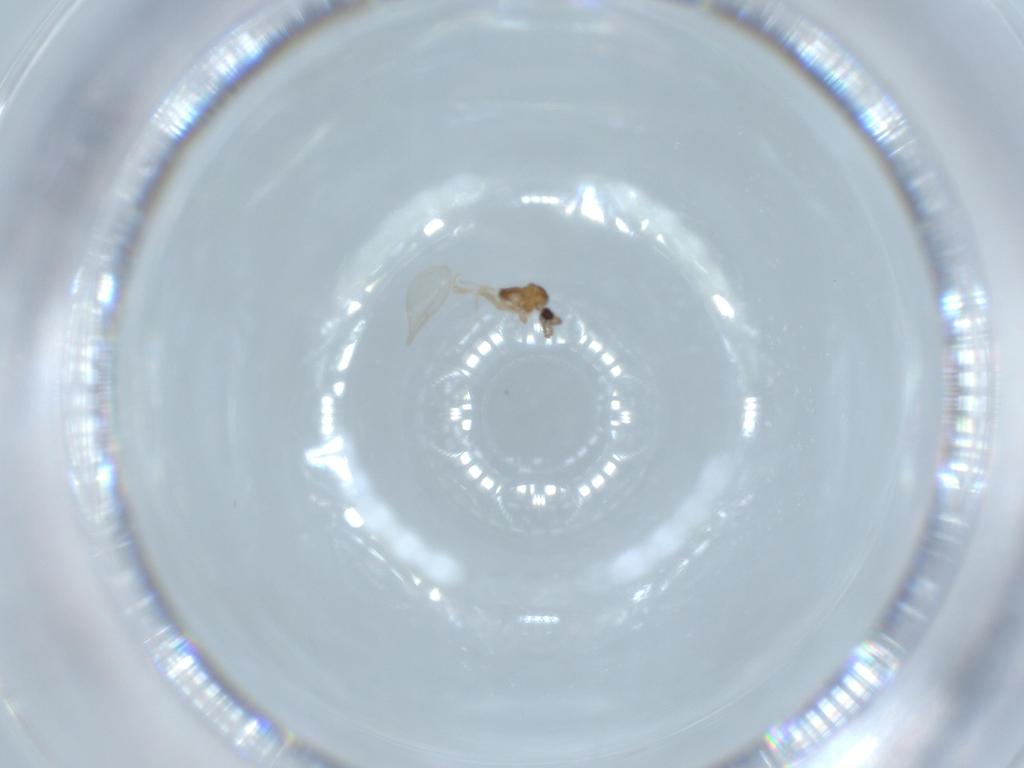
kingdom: Animalia
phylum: Arthropoda
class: Insecta
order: Diptera
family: Cecidomyiidae
